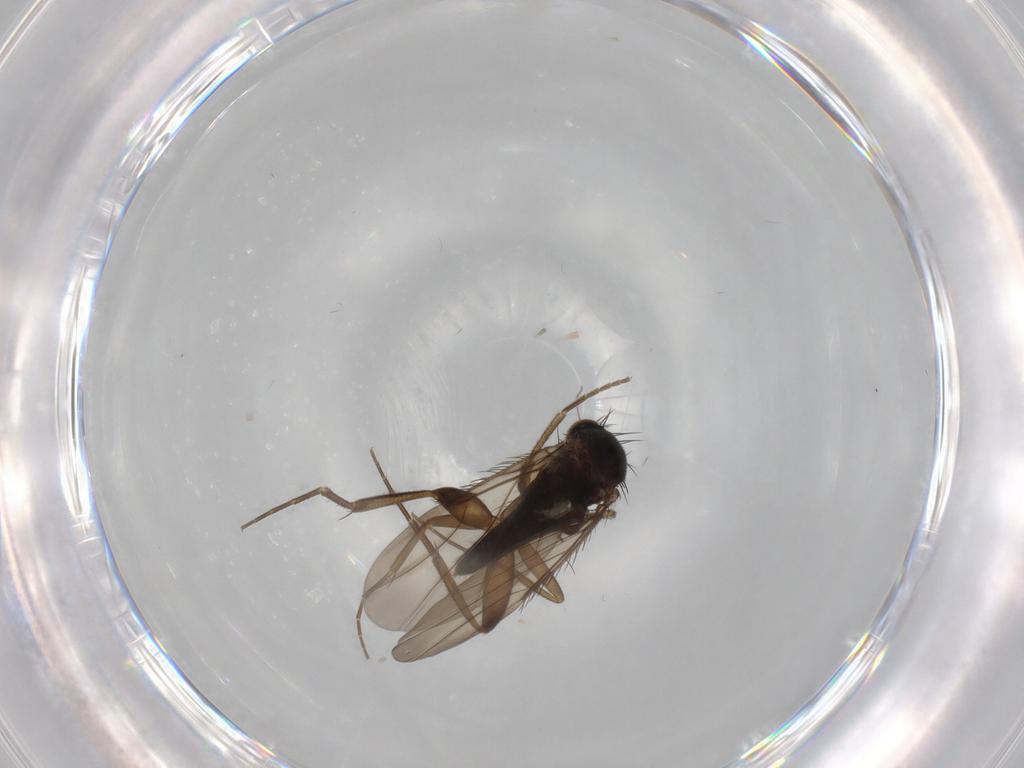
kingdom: Animalia
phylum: Arthropoda
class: Insecta
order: Diptera
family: Phoridae
